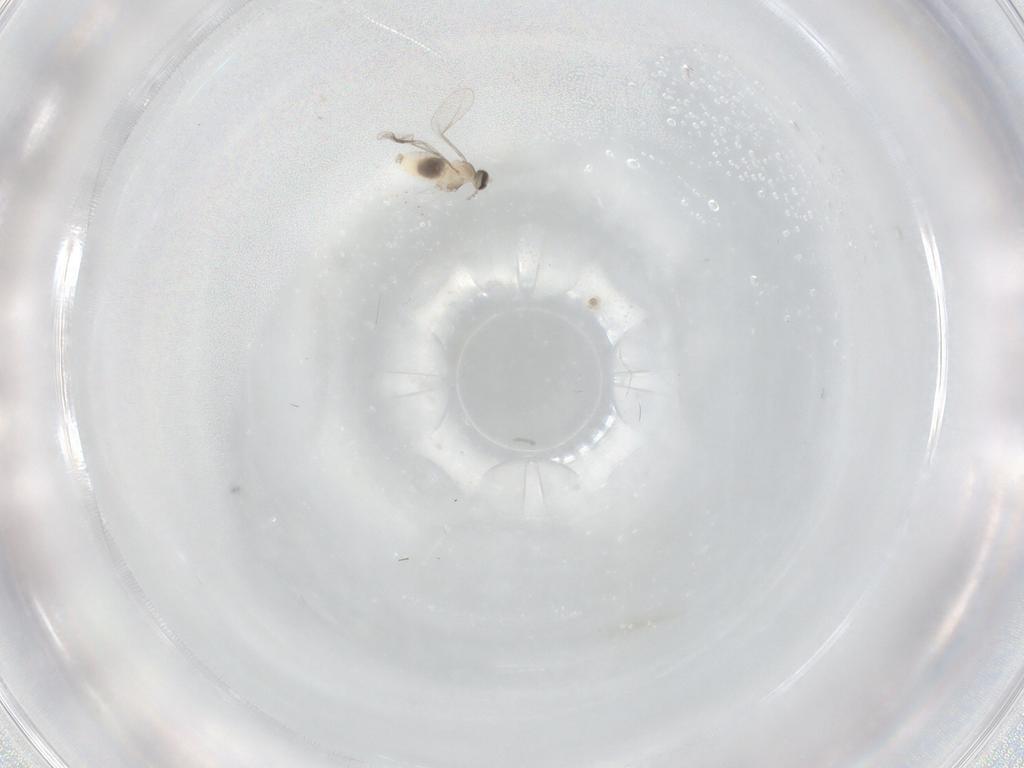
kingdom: Animalia
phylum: Arthropoda
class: Insecta
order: Diptera
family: Cecidomyiidae
